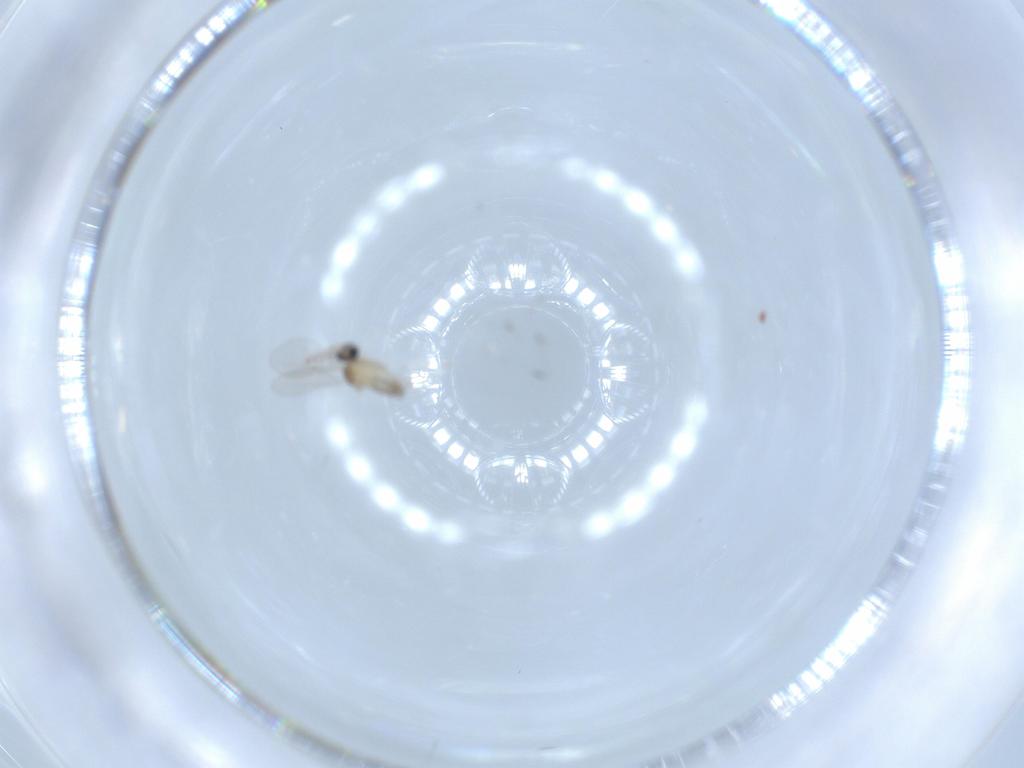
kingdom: Animalia
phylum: Arthropoda
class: Insecta
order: Diptera
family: Cecidomyiidae
